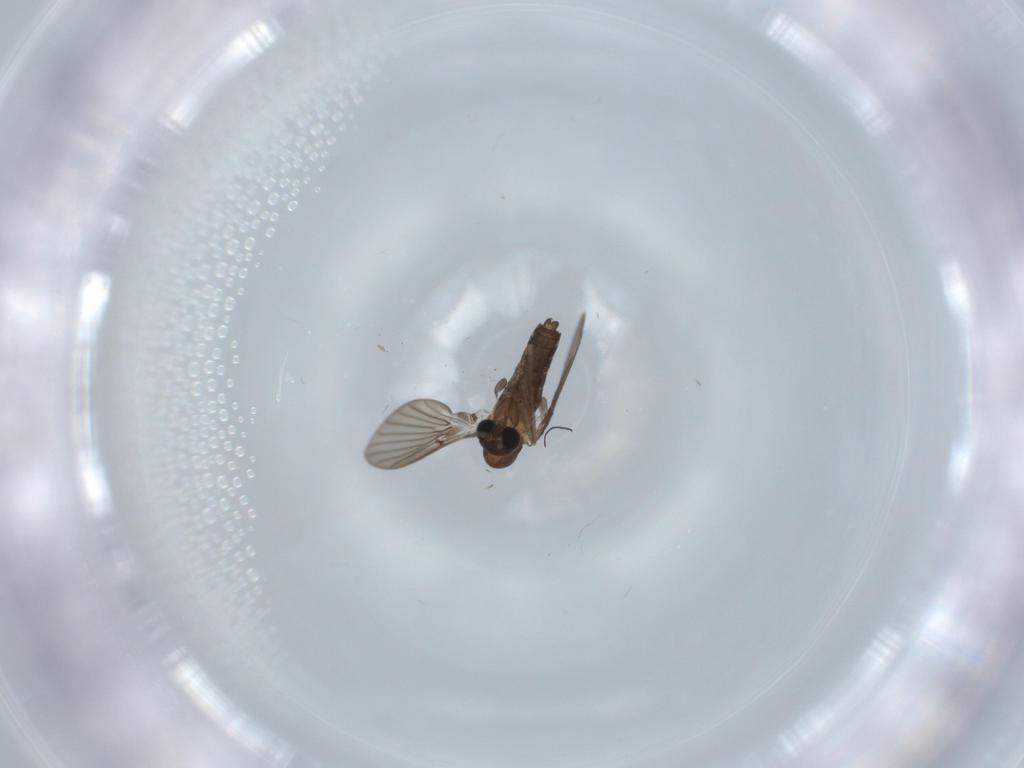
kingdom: Animalia
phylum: Arthropoda
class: Insecta
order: Diptera
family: Psychodidae
